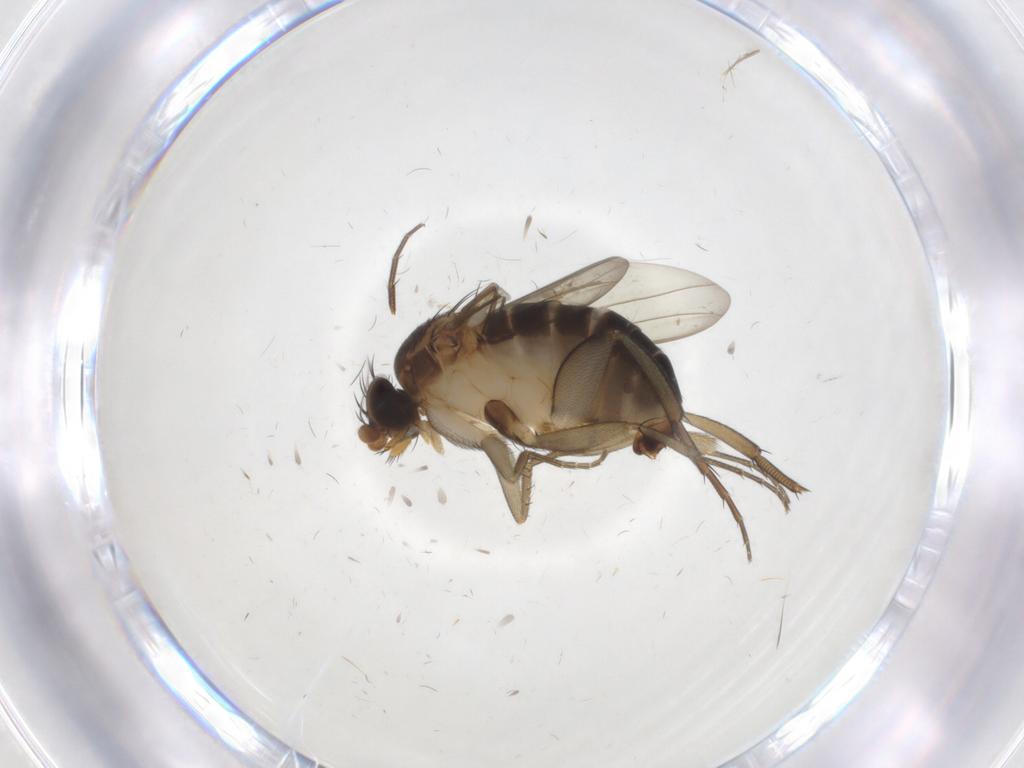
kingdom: Animalia
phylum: Arthropoda
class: Insecta
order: Diptera
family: Phoridae
